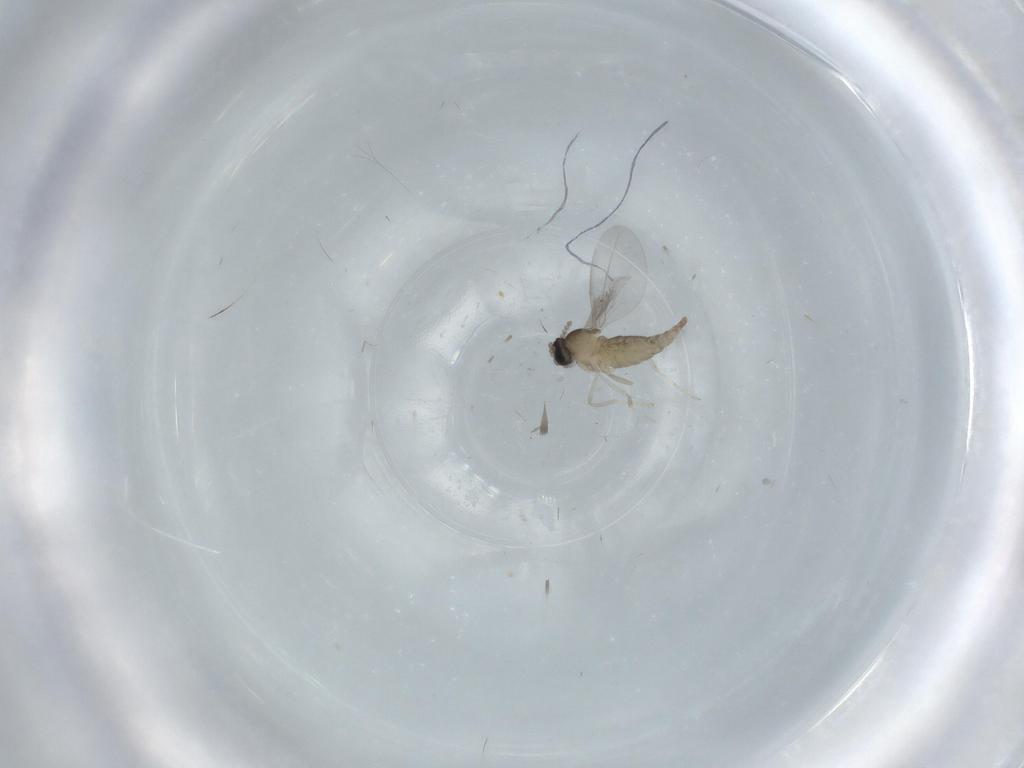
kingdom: Animalia
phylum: Arthropoda
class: Insecta
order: Diptera
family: Cecidomyiidae
